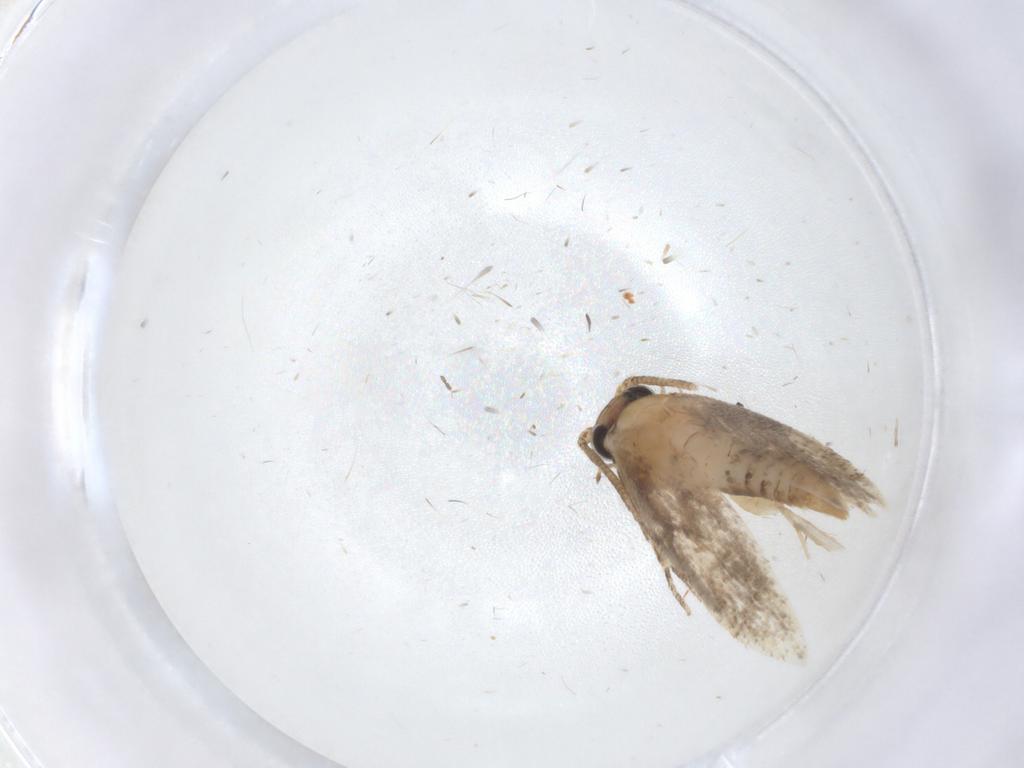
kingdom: Animalia
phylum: Arthropoda
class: Insecta
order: Lepidoptera
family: Tineidae
